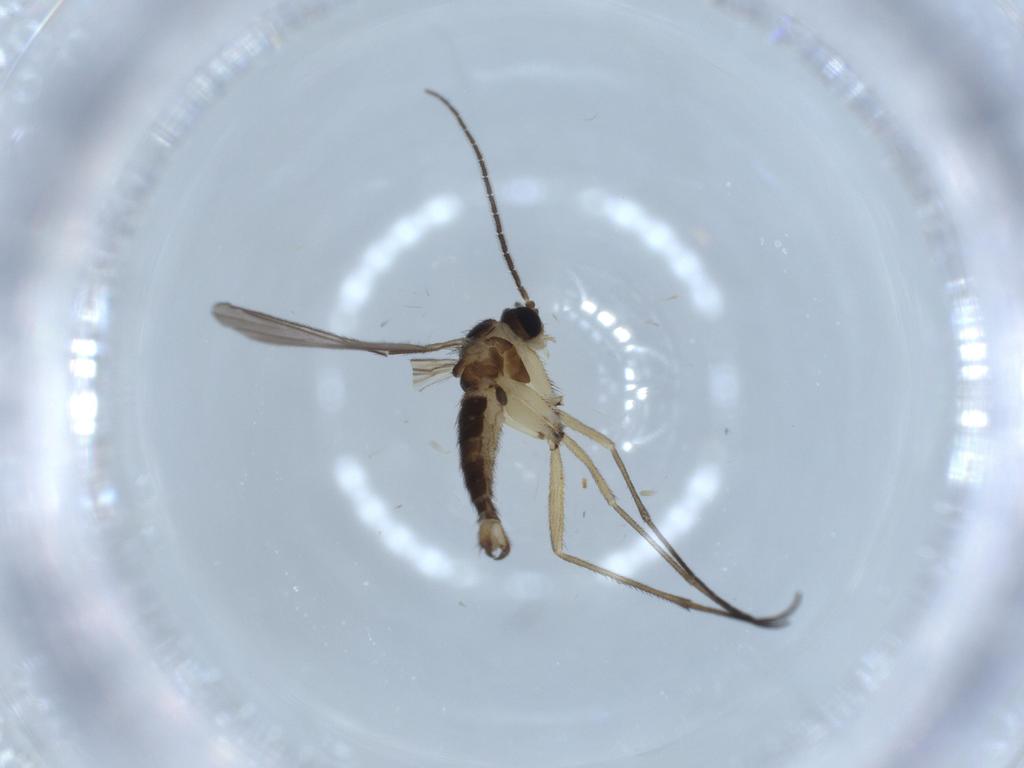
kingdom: Animalia
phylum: Arthropoda
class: Insecta
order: Diptera
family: Sciaridae
